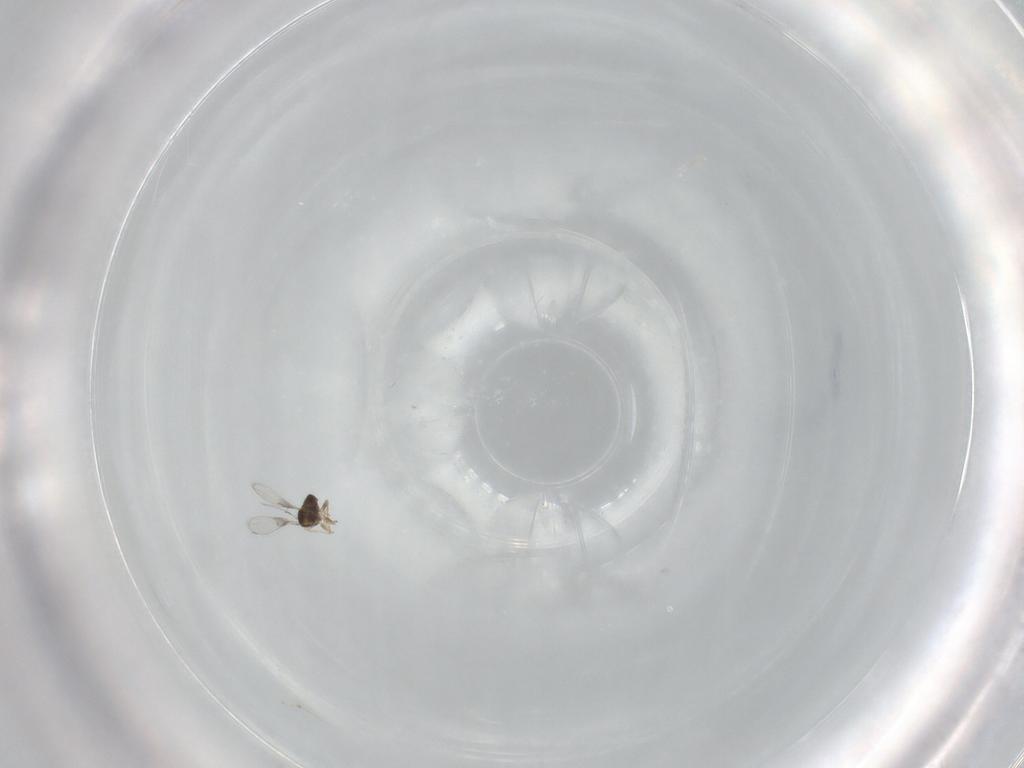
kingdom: Animalia
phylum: Arthropoda
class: Insecta
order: Hymenoptera
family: Trichogrammatidae
